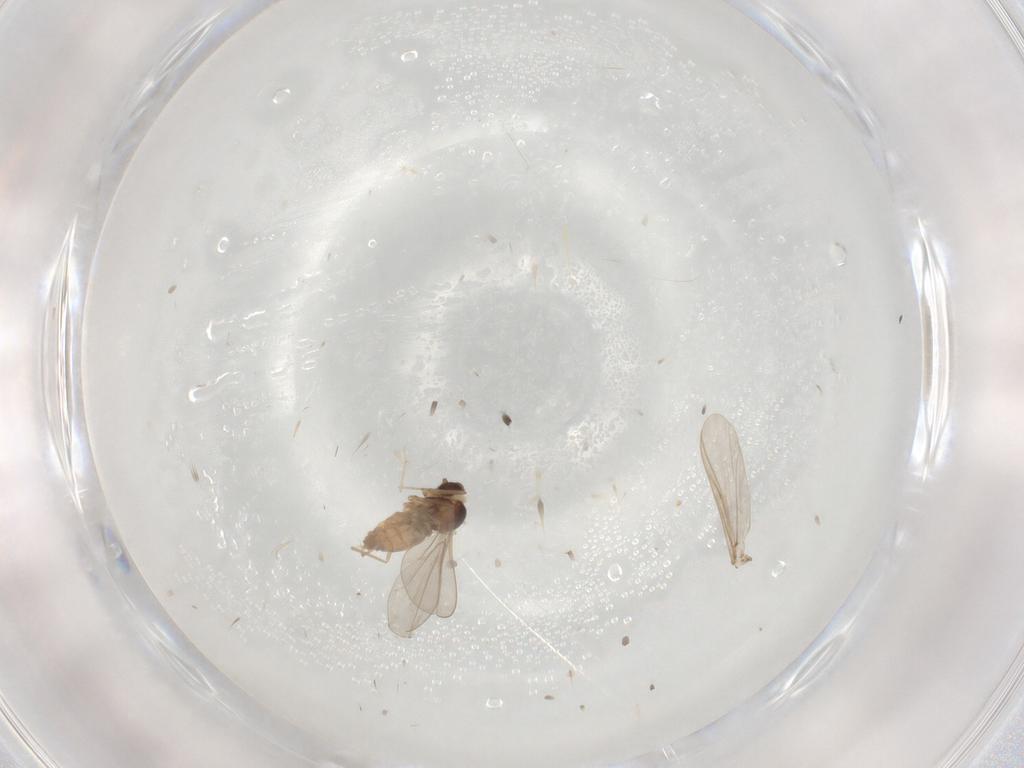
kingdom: Animalia
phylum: Arthropoda
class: Insecta
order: Diptera
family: Cecidomyiidae
